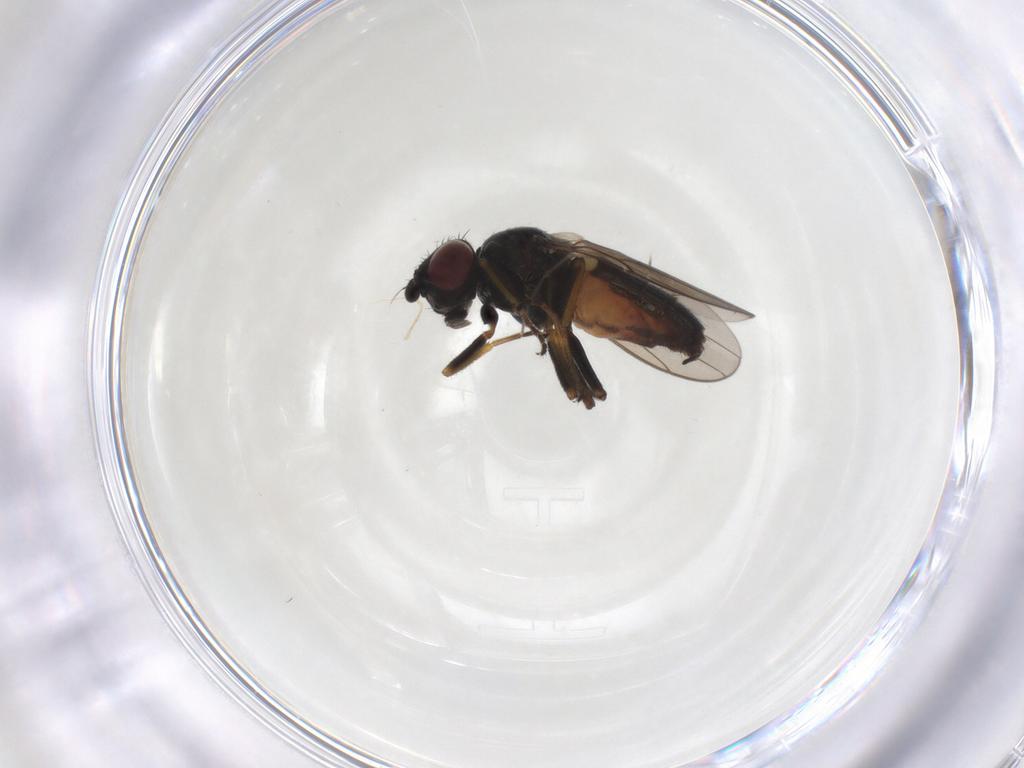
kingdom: Animalia
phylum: Arthropoda
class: Insecta
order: Diptera
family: Chloropidae
